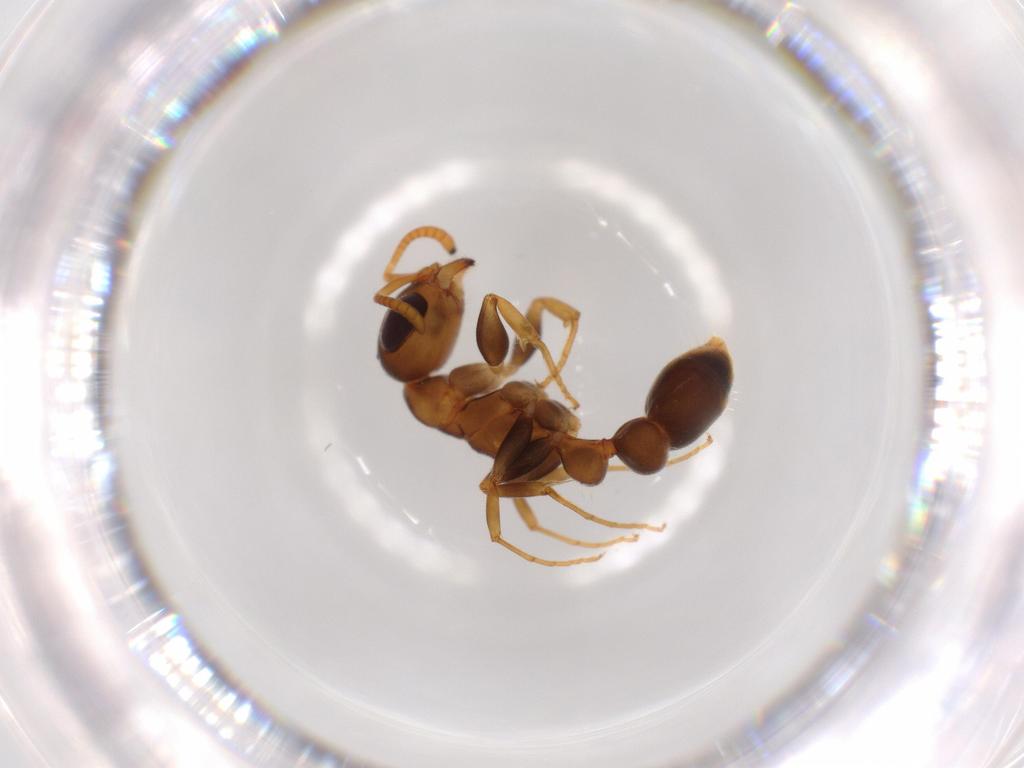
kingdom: Animalia
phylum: Arthropoda
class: Insecta
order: Hymenoptera
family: Formicidae
